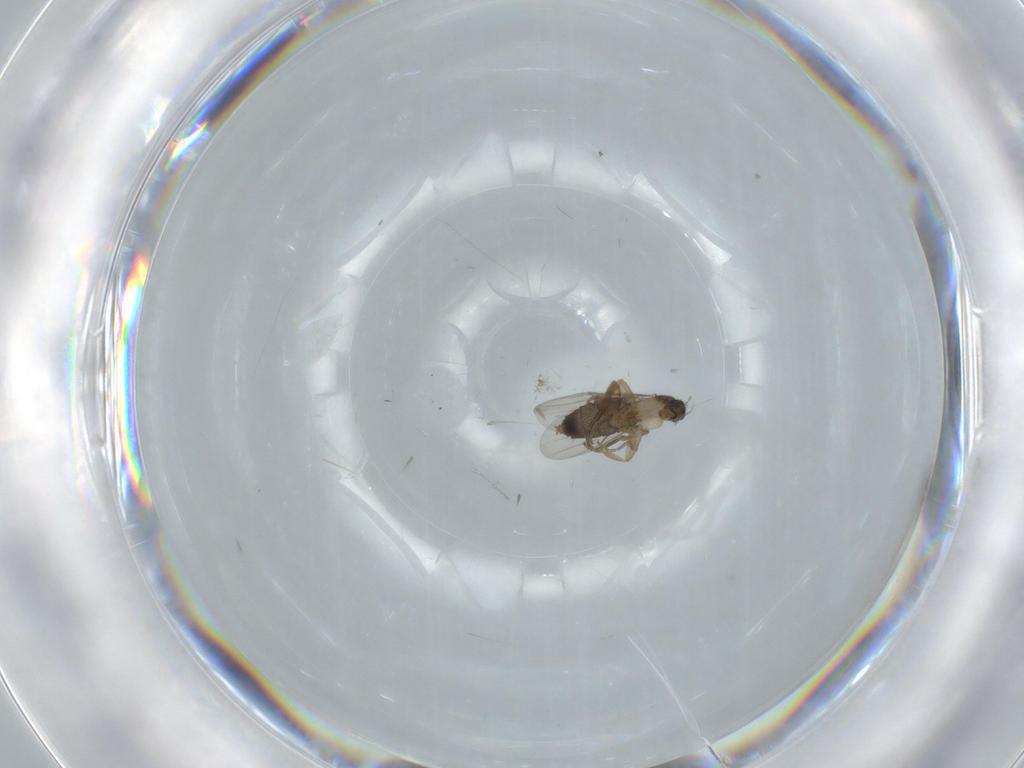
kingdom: Animalia
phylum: Arthropoda
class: Insecta
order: Diptera
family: Phoridae
